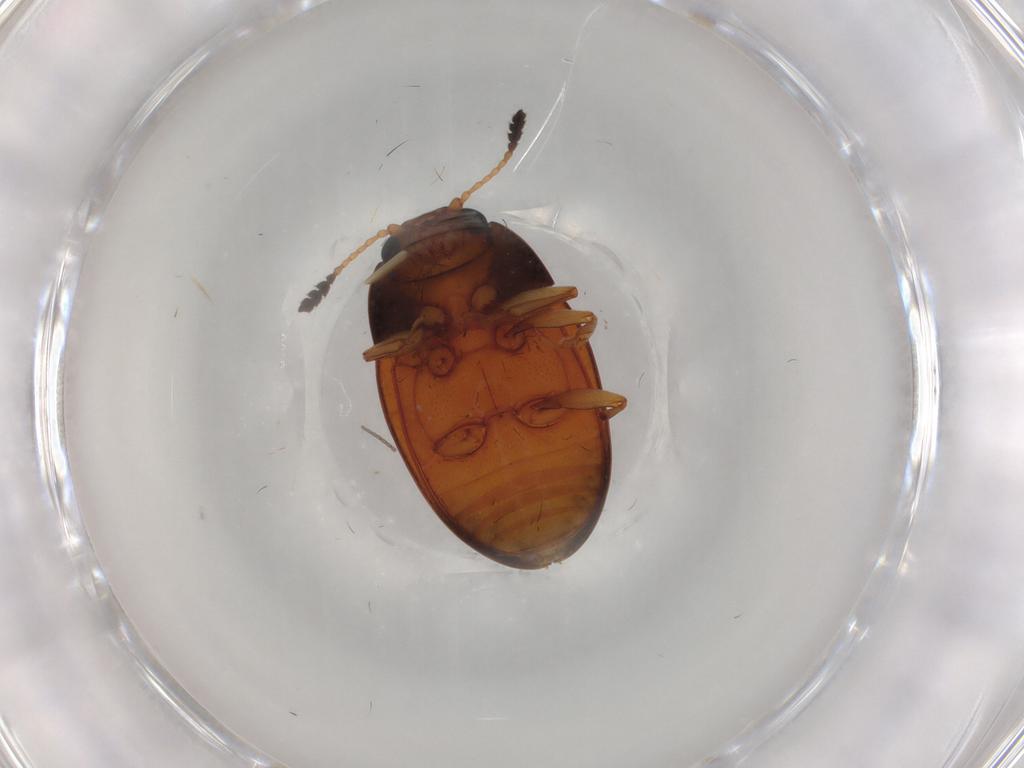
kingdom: Animalia
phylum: Arthropoda
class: Insecta
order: Coleoptera
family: Erotylidae
